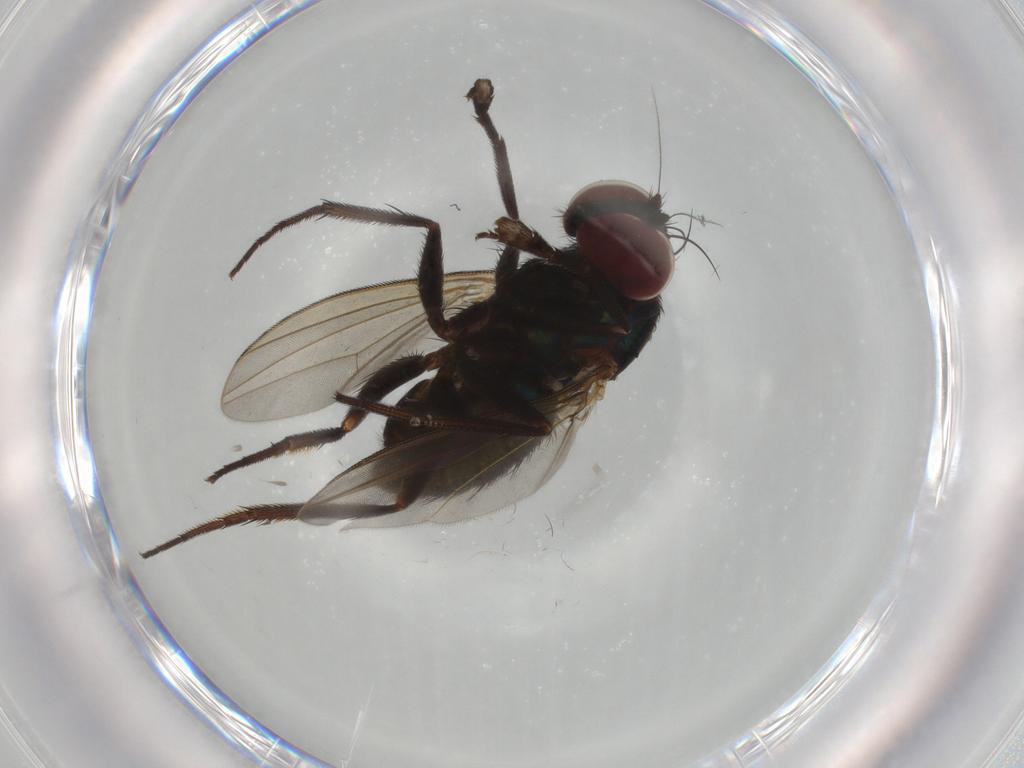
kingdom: Animalia
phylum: Arthropoda
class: Insecta
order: Diptera
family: Dolichopodidae
